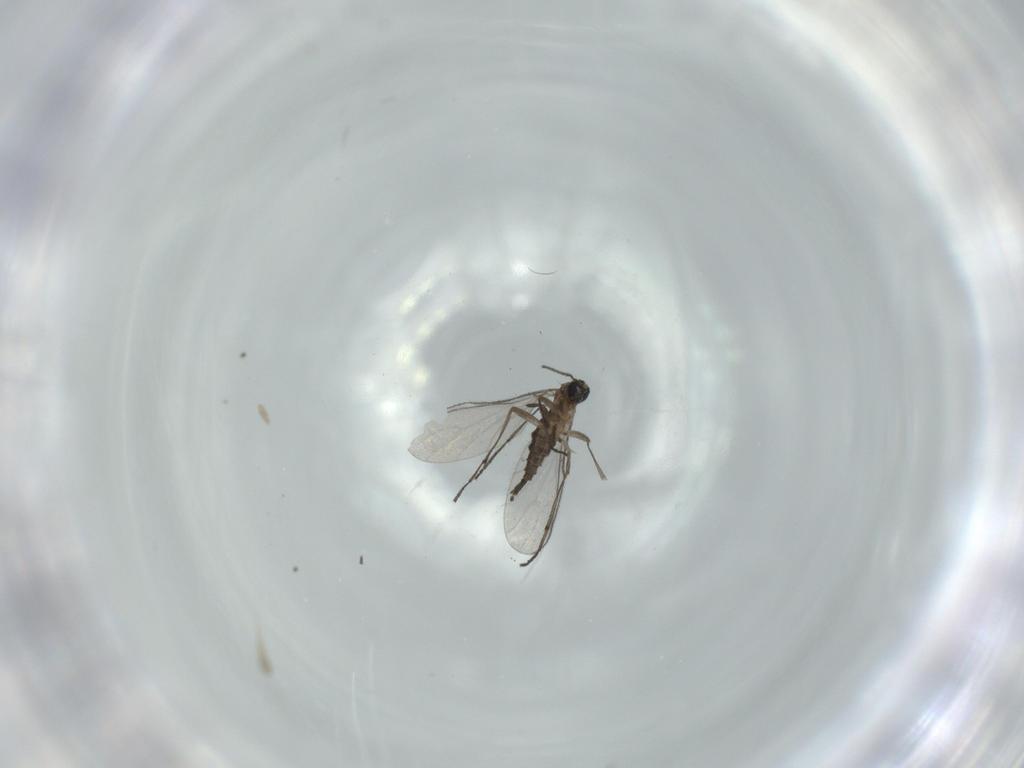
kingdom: Animalia
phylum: Arthropoda
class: Insecta
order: Diptera
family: Sciaridae
